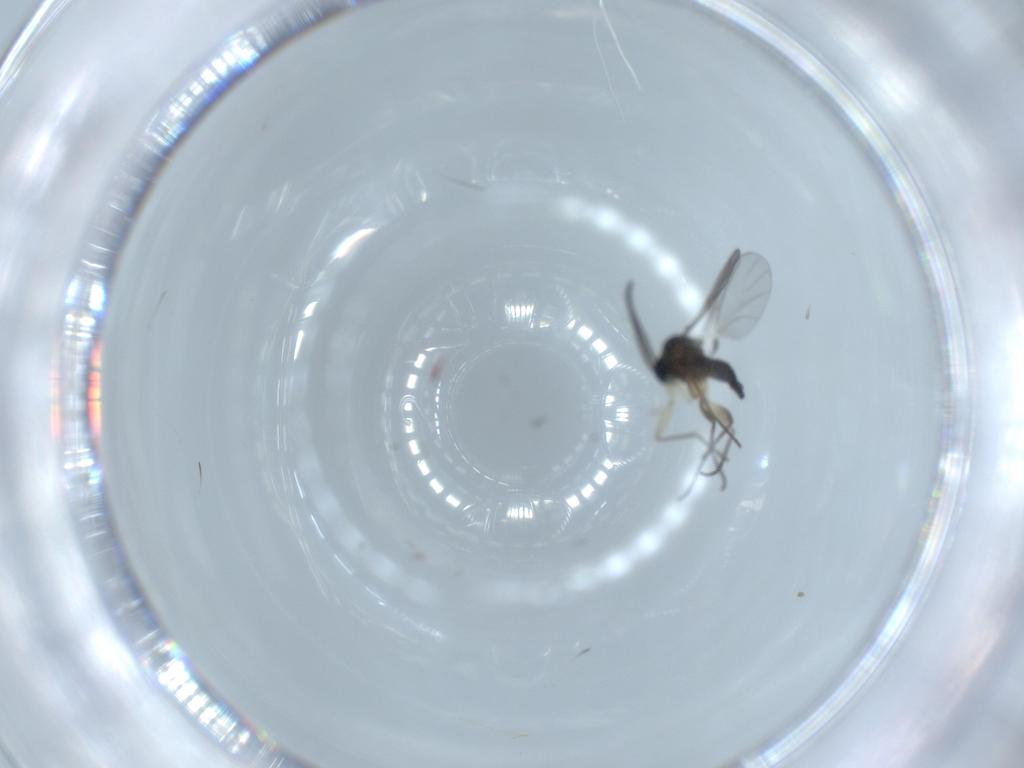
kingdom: Animalia
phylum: Arthropoda
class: Insecta
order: Diptera
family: Sciaridae
